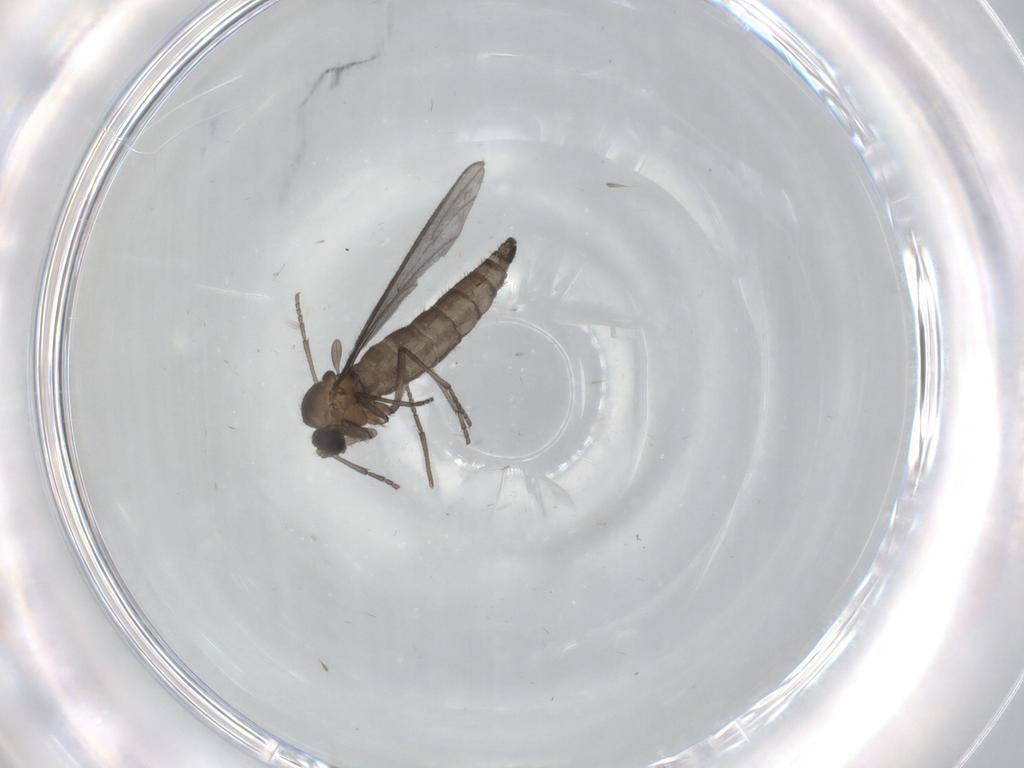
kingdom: Animalia
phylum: Arthropoda
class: Insecta
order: Diptera
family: Sciaridae
